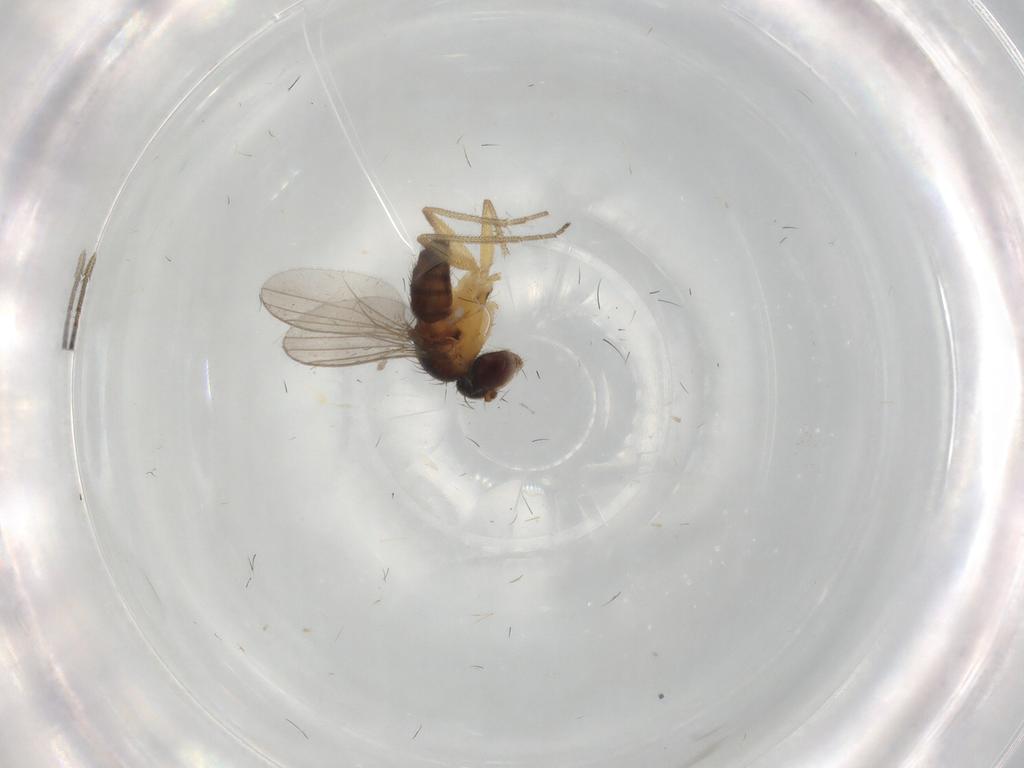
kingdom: Animalia
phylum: Arthropoda
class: Insecta
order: Diptera
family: Dolichopodidae
